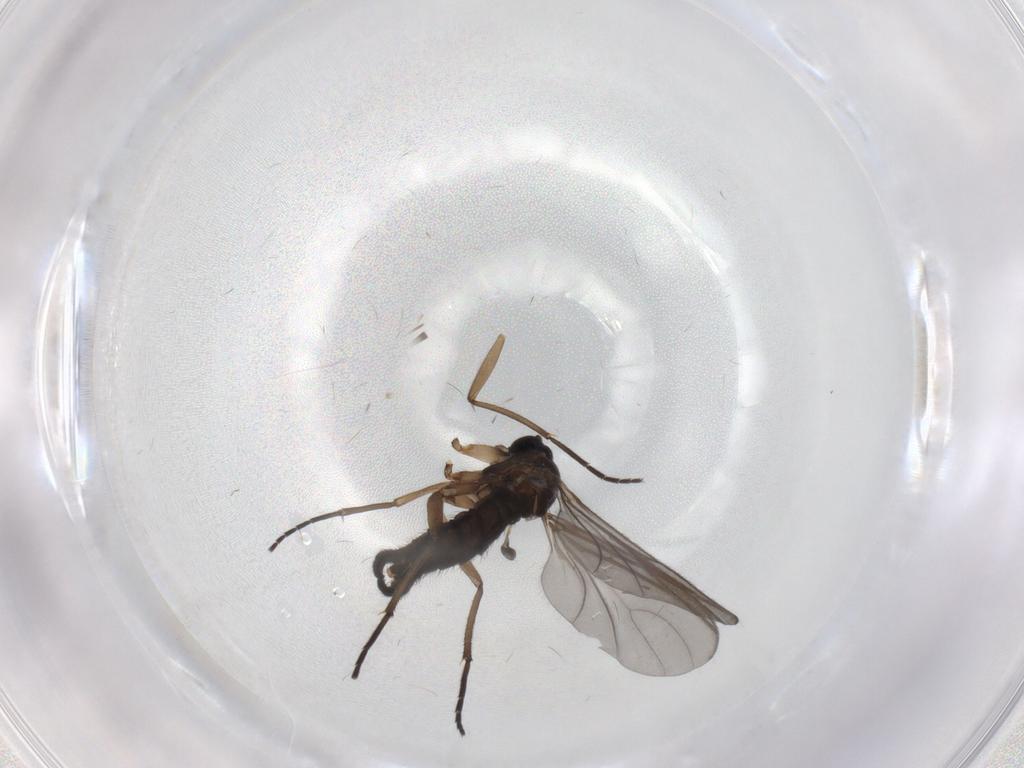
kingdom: Animalia
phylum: Arthropoda
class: Insecta
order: Diptera
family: Sciaridae
